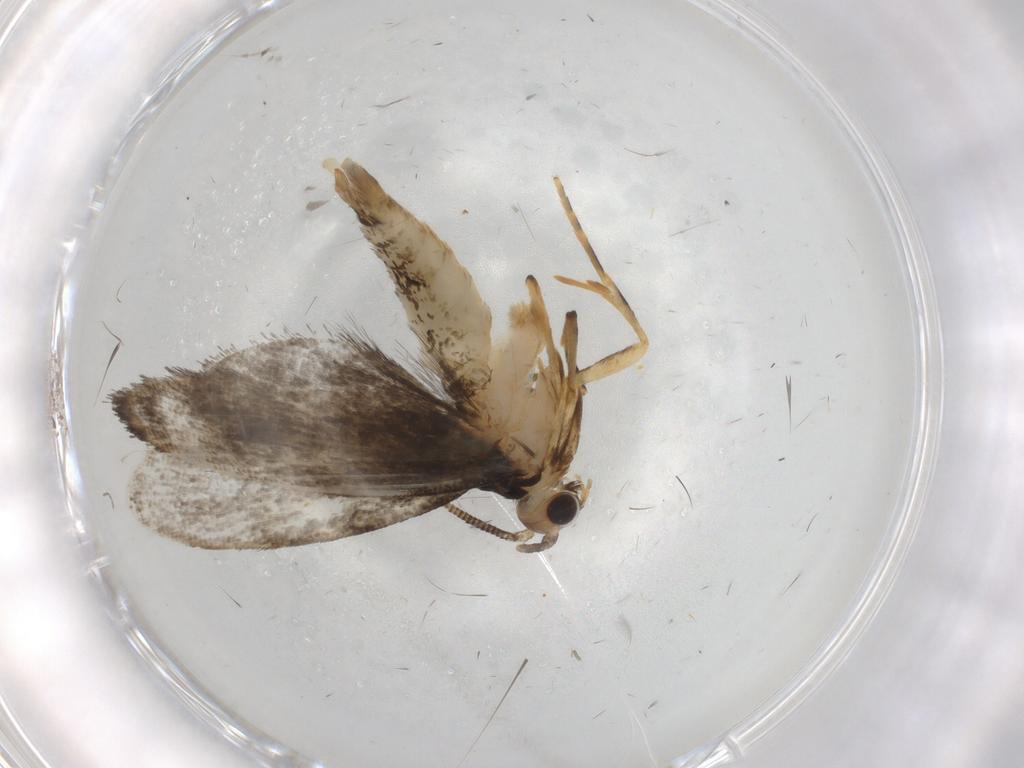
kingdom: Animalia
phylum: Arthropoda
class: Insecta
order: Lepidoptera
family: Tineidae
